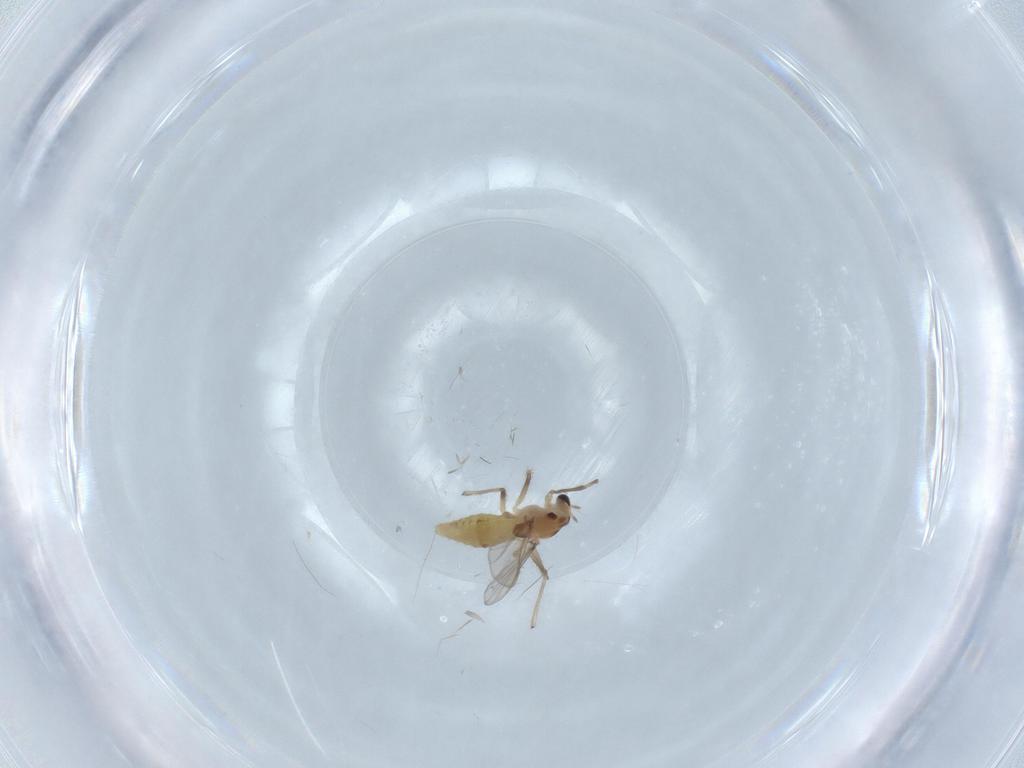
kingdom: Animalia
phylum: Arthropoda
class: Insecta
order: Diptera
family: Chironomidae
